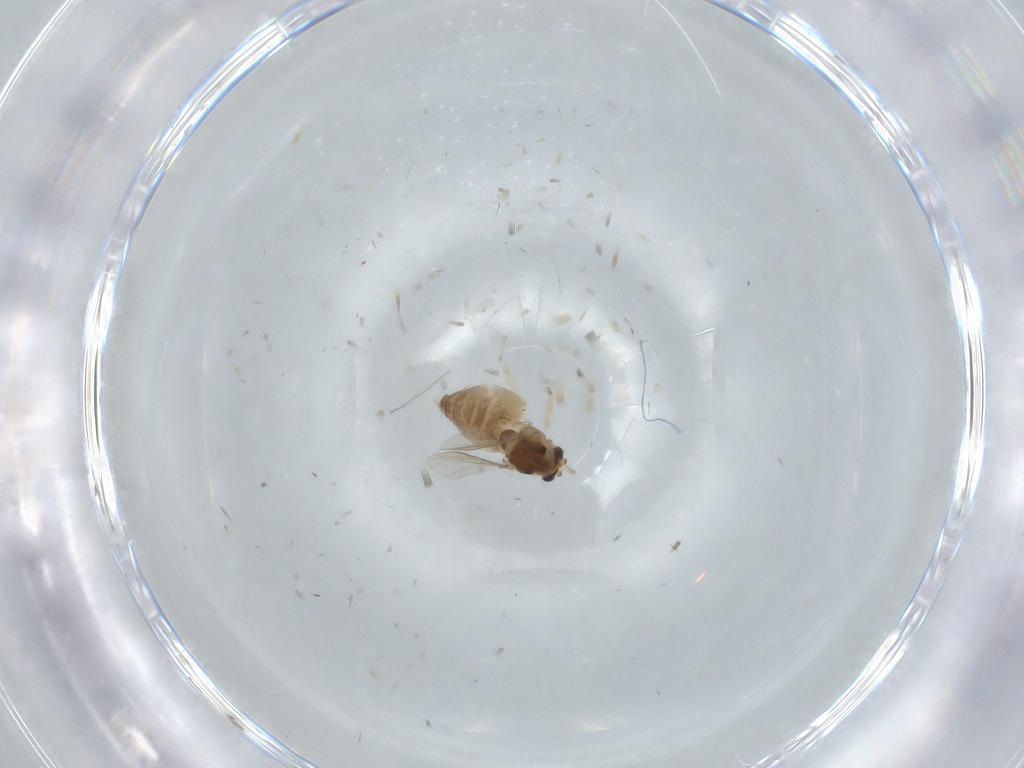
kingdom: Animalia
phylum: Arthropoda
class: Insecta
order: Diptera
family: Chironomidae
